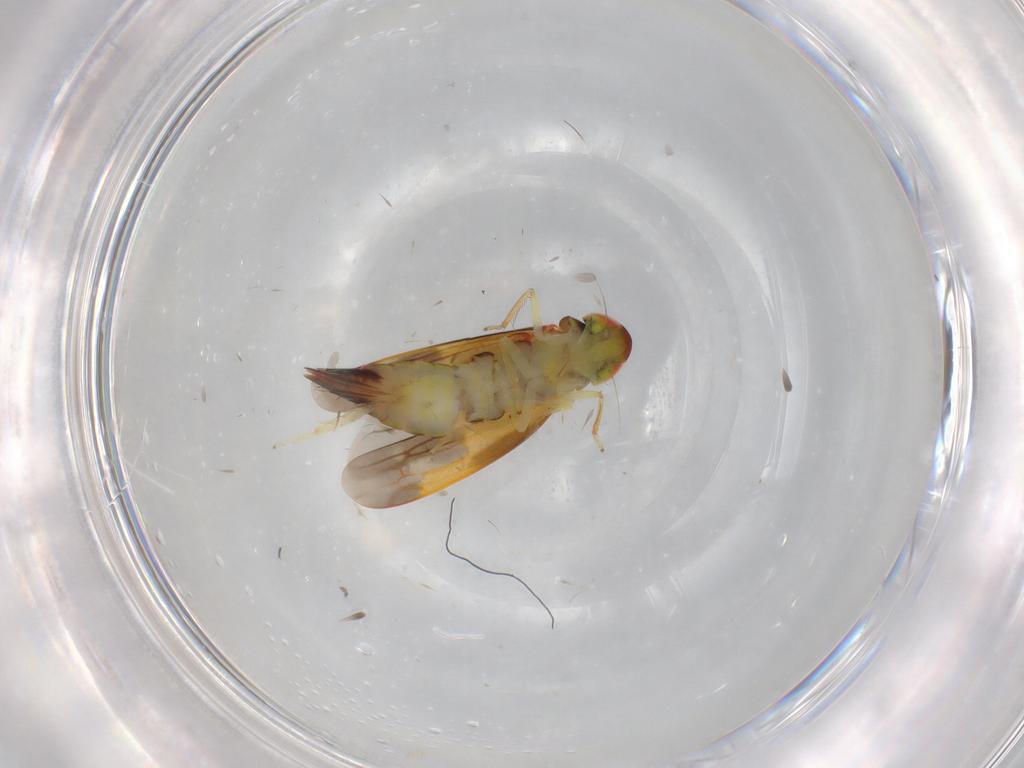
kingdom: Animalia
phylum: Arthropoda
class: Insecta
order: Hemiptera
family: Cicadellidae
